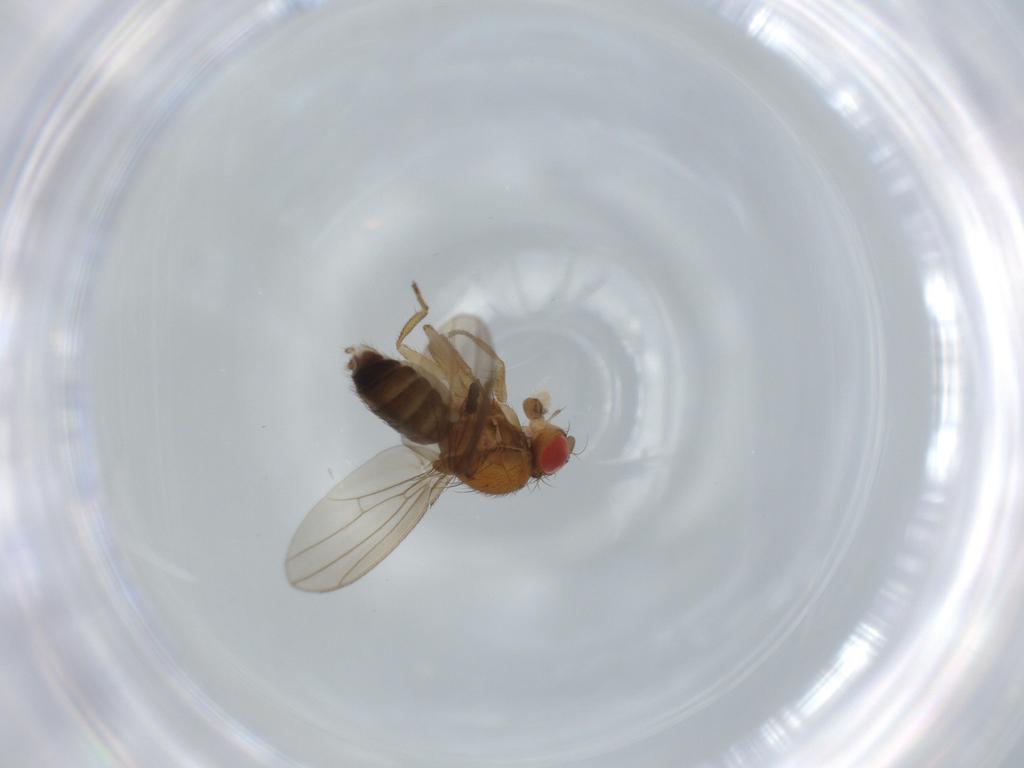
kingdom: Animalia
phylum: Arthropoda
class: Insecta
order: Diptera
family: Drosophilidae
